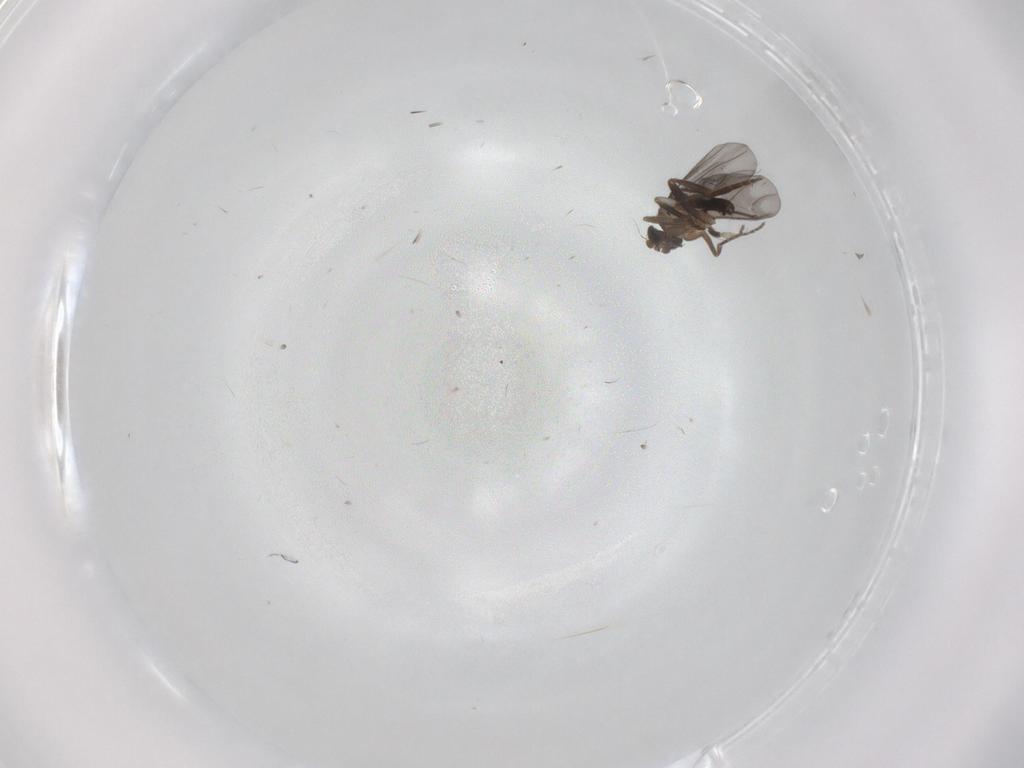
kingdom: Animalia
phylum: Arthropoda
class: Insecta
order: Diptera
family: Phoridae
